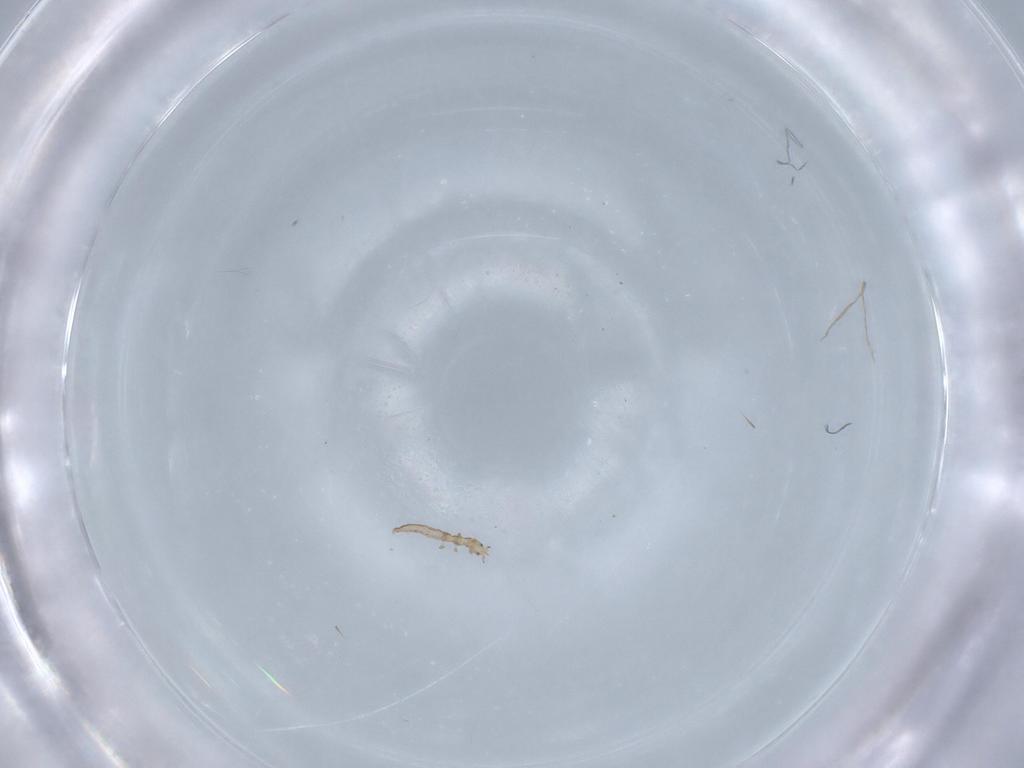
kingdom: Animalia
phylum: Arthropoda
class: Insecta
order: Neuroptera
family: Mantispidae
